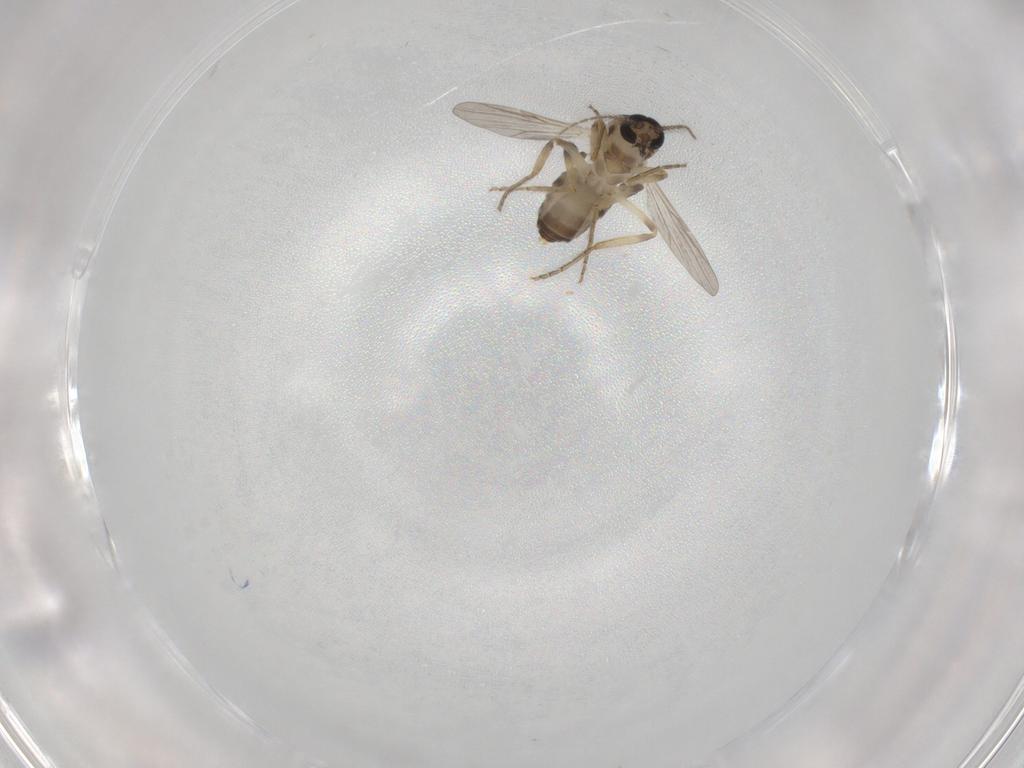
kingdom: Animalia
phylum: Arthropoda
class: Insecta
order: Diptera
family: Ceratopogonidae
